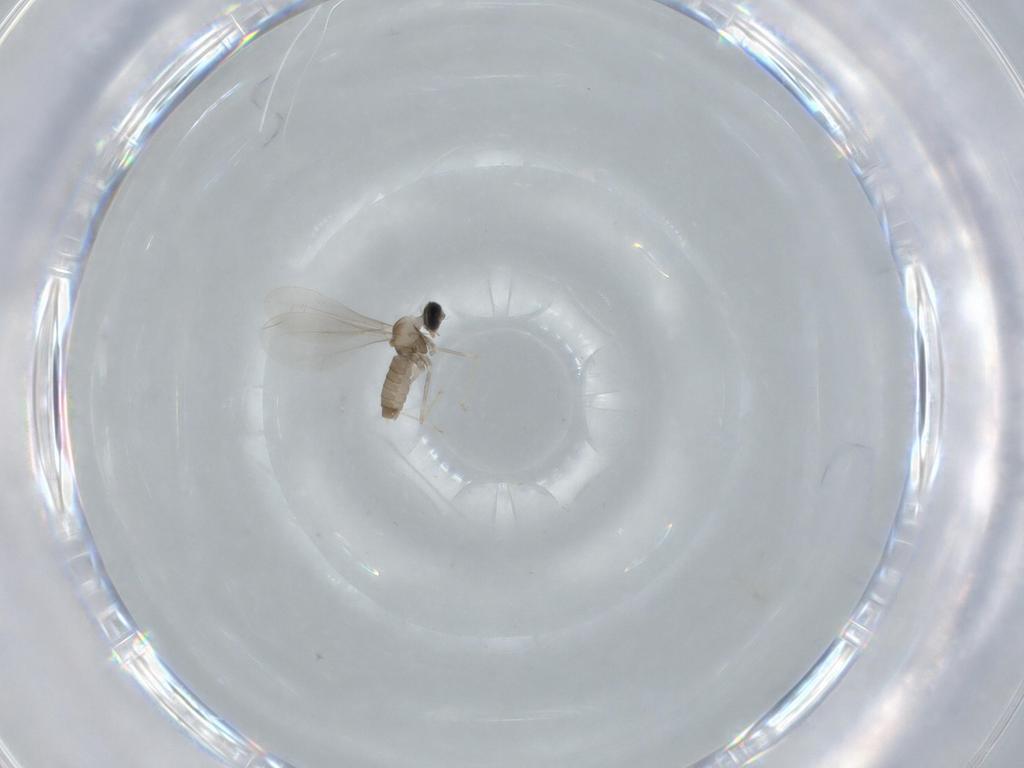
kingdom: Animalia
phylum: Arthropoda
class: Insecta
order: Diptera
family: Cecidomyiidae
